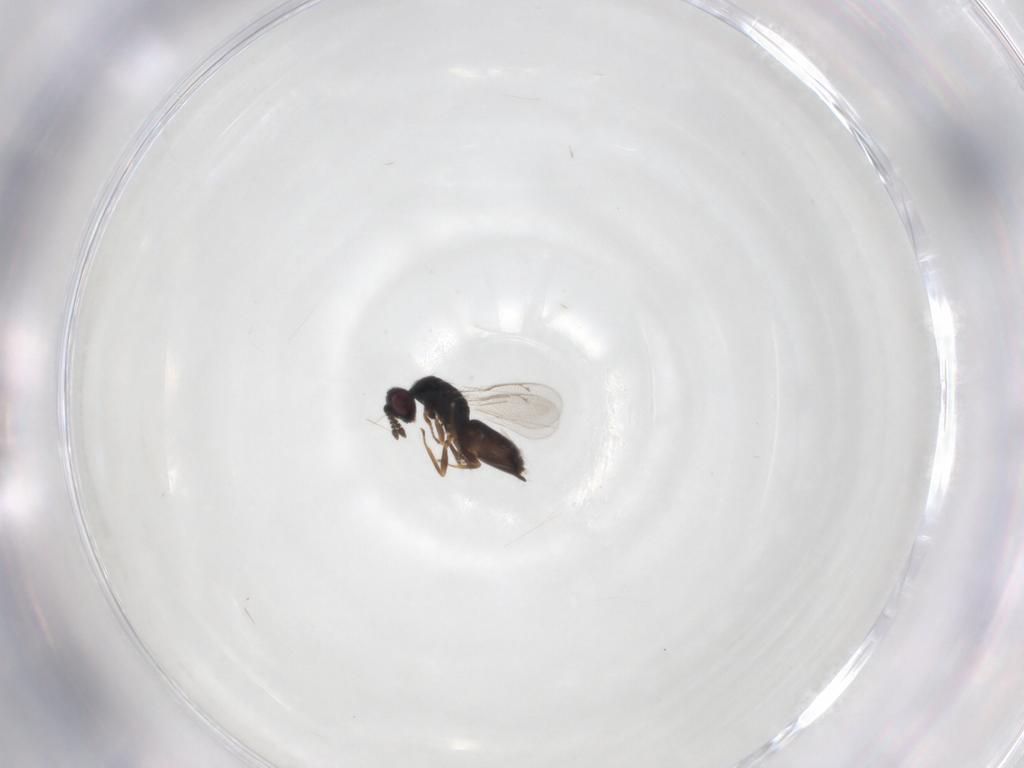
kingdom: Animalia
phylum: Arthropoda
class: Insecta
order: Hymenoptera
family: Eulophidae
